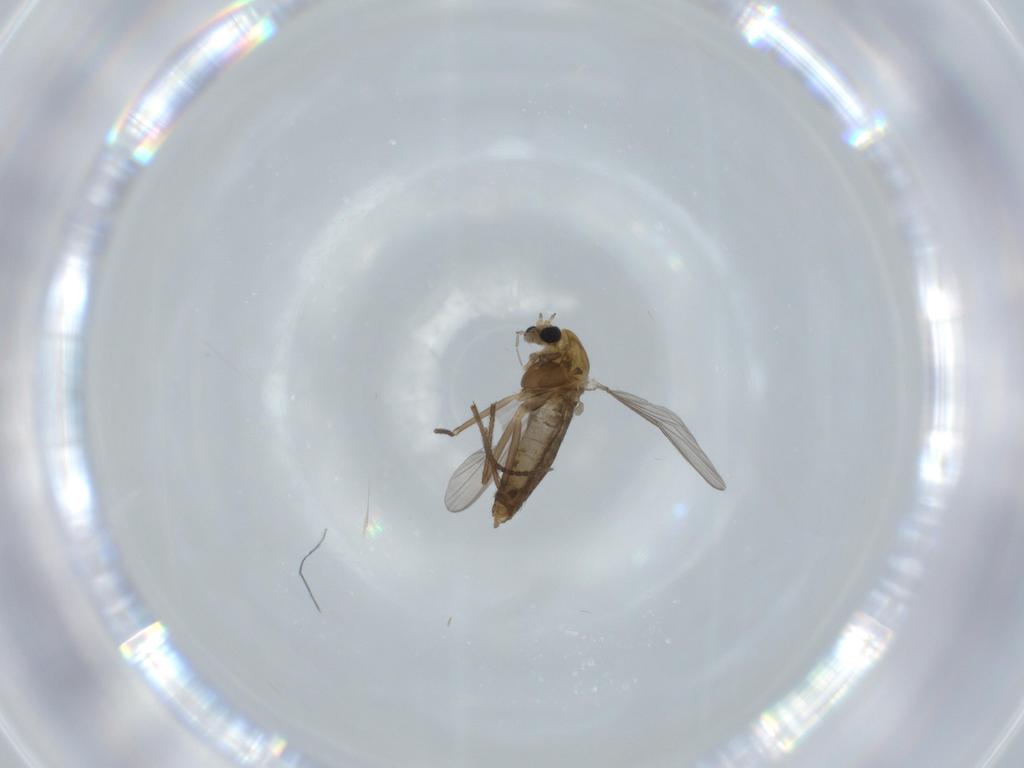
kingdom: Animalia
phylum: Arthropoda
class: Insecta
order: Diptera
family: Chironomidae
